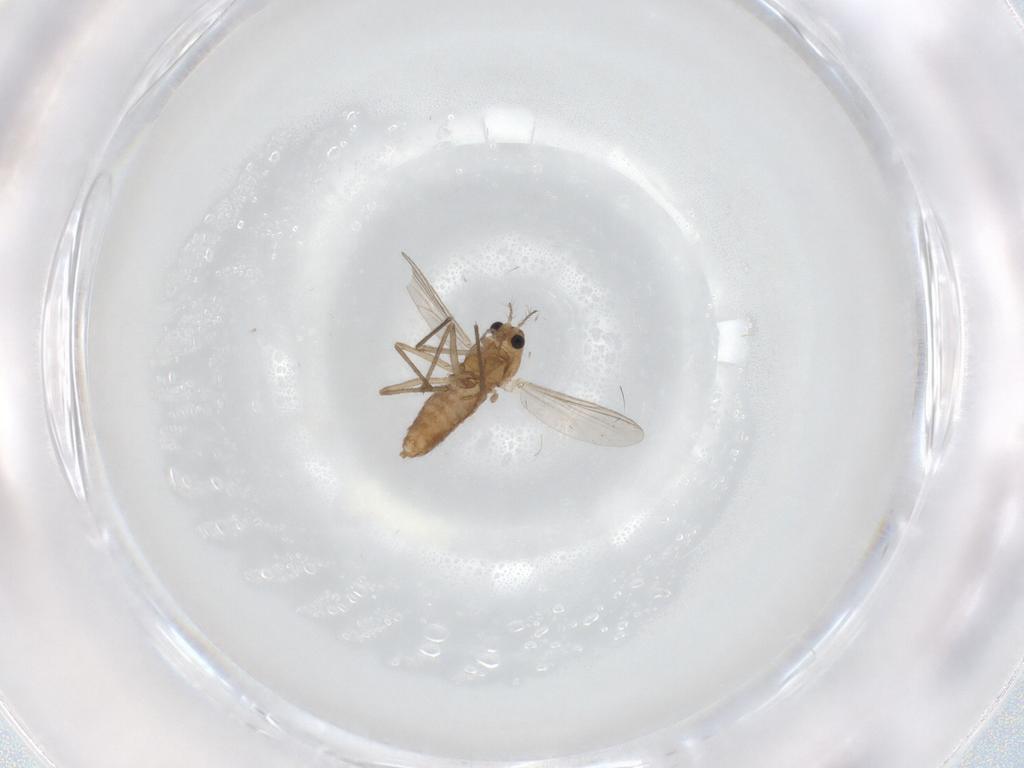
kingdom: Animalia
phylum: Arthropoda
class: Insecta
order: Diptera
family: Chironomidae
